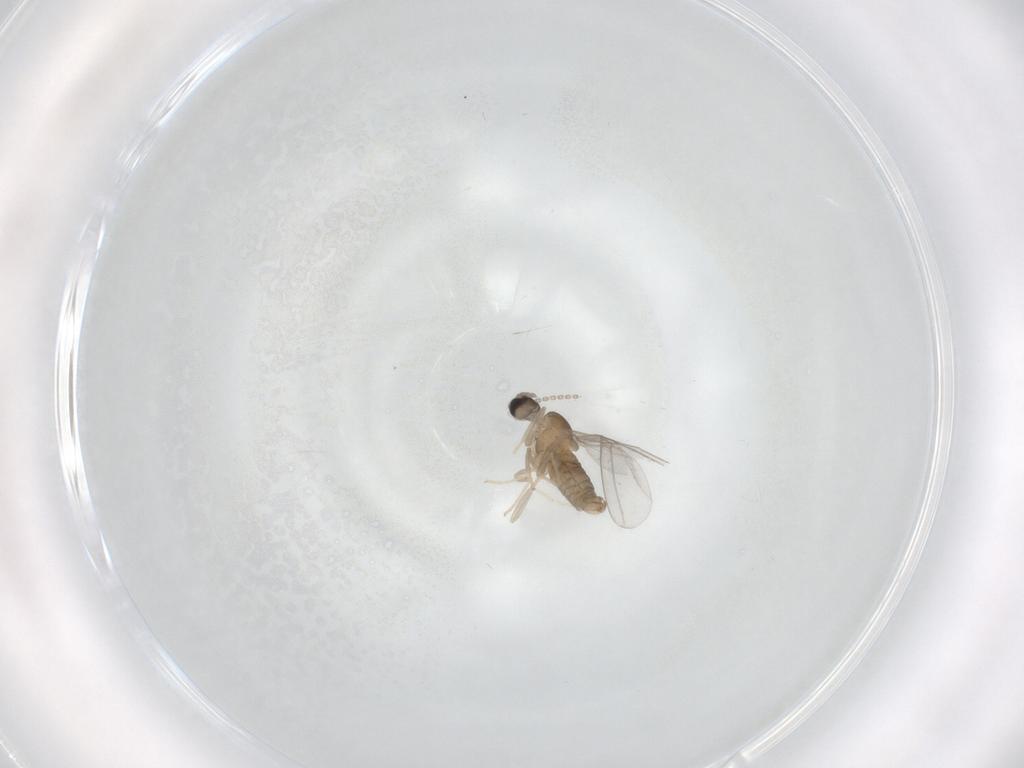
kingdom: Animalia
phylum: Arthropoda
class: Insecta
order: Diptera
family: Cecidomyiidae
